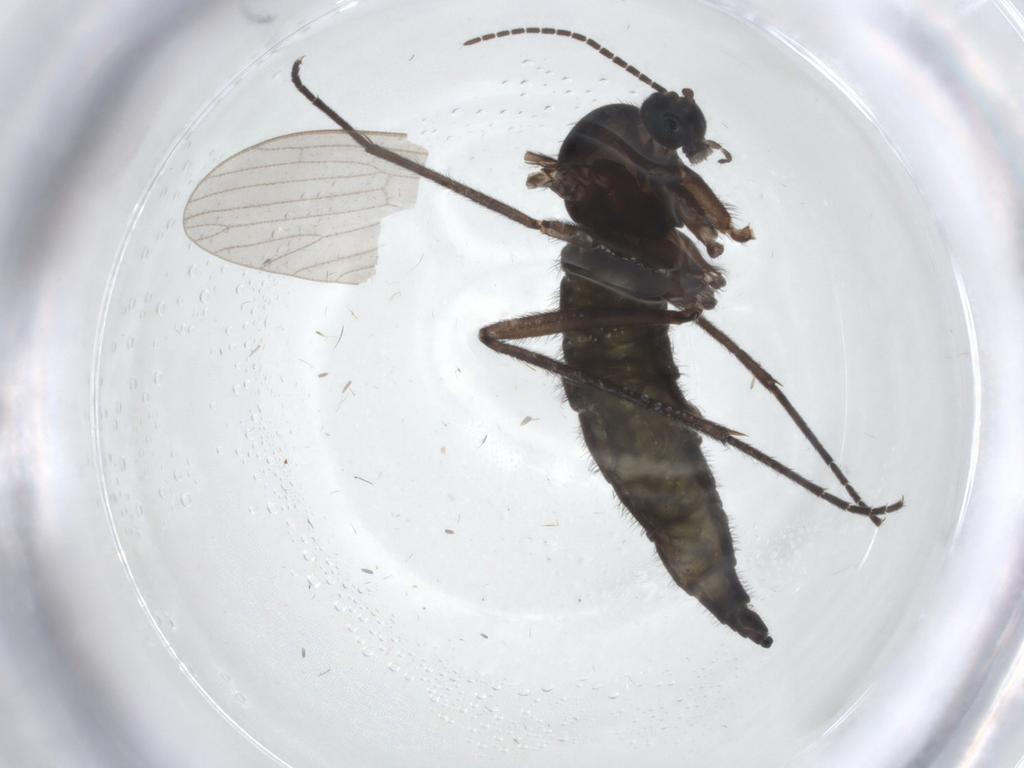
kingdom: Animalia
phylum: Arthropoda
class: Insecta
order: Diptera
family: Sciaridae
